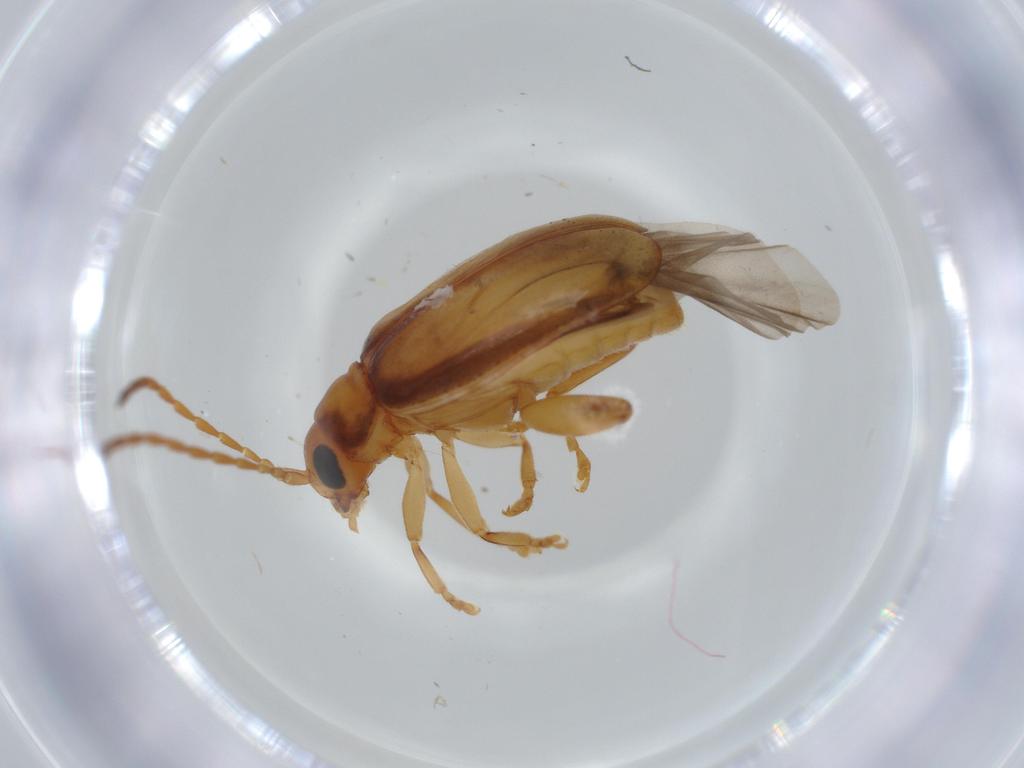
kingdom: Animalia
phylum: Arthropoda
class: Insecta
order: Coleoptera
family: Chrysomelidae
